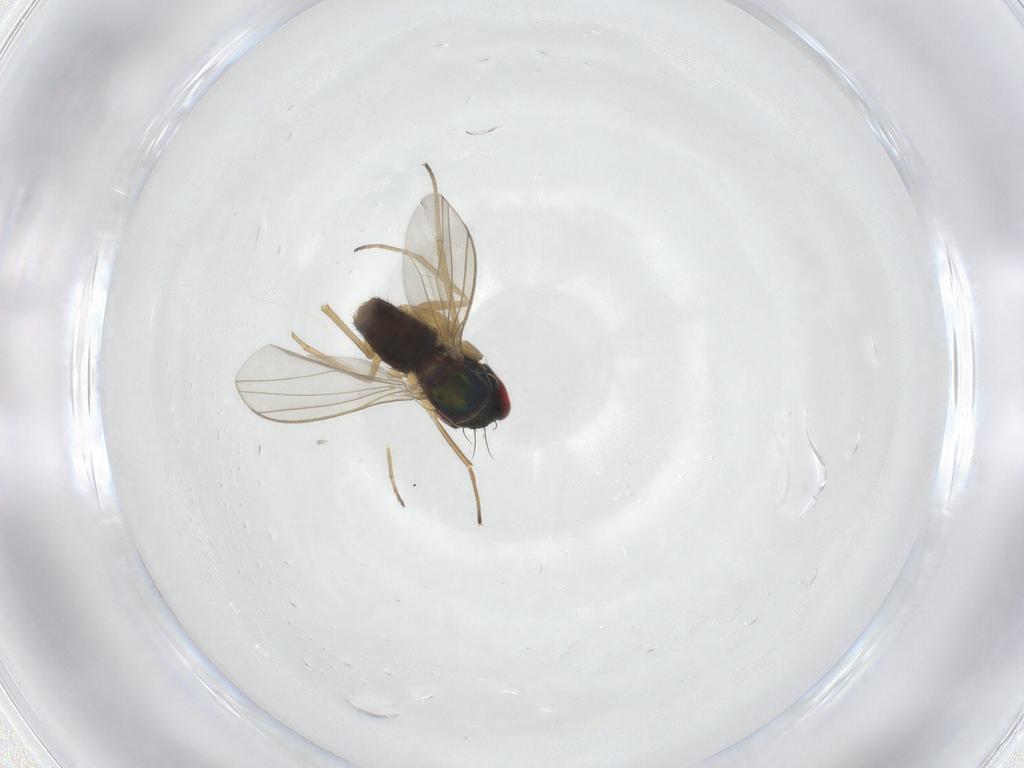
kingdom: Animalia
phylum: Arthropoda
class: Insecta
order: Diptera
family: Dolichopodidae
